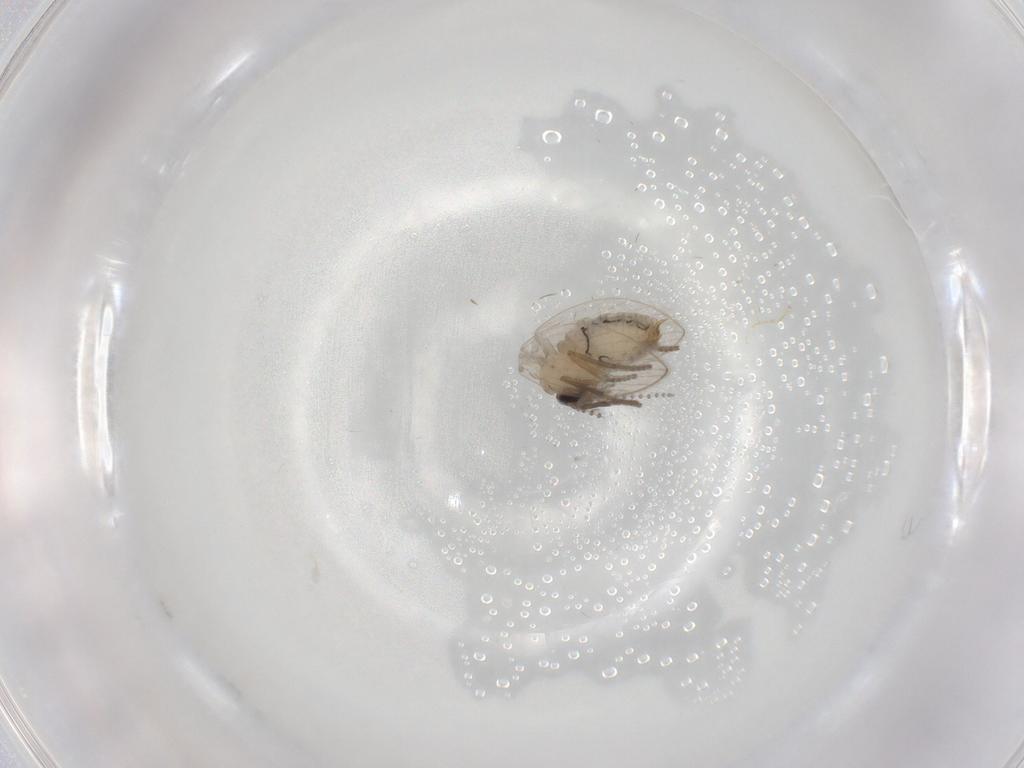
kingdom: Animalia
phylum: Arthropoda
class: Insecta
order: Diptera
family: Psychodidae
